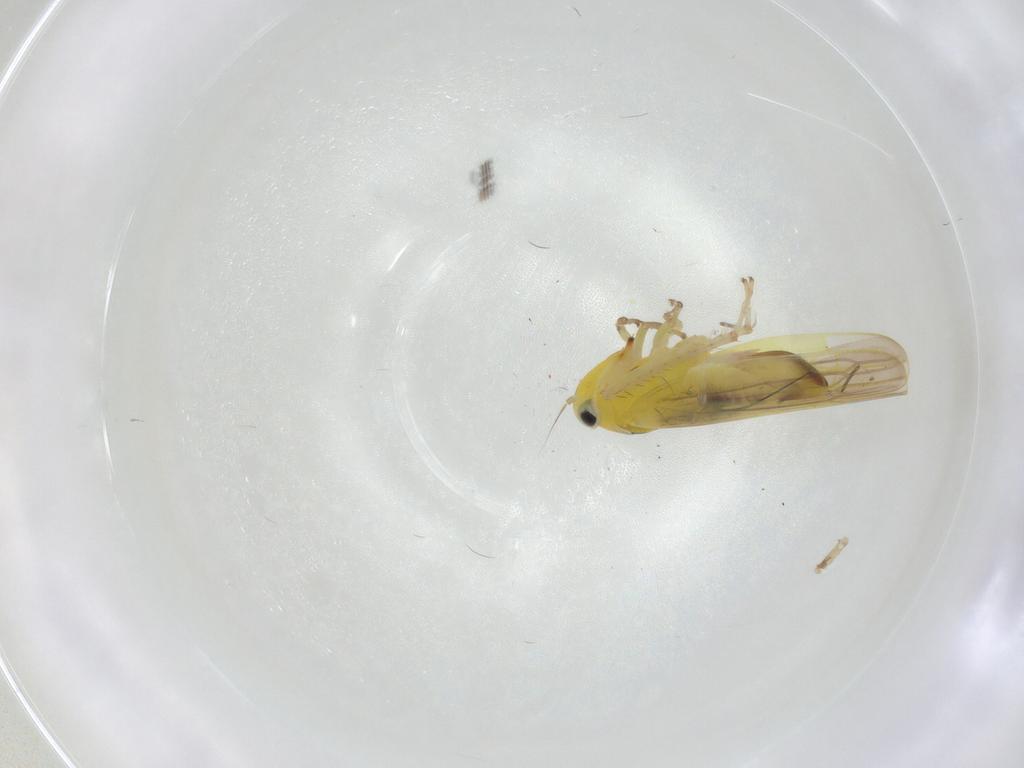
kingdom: Animalia
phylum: Arthropoda
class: Insecta
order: Hemiptera
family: Cicadellidae
